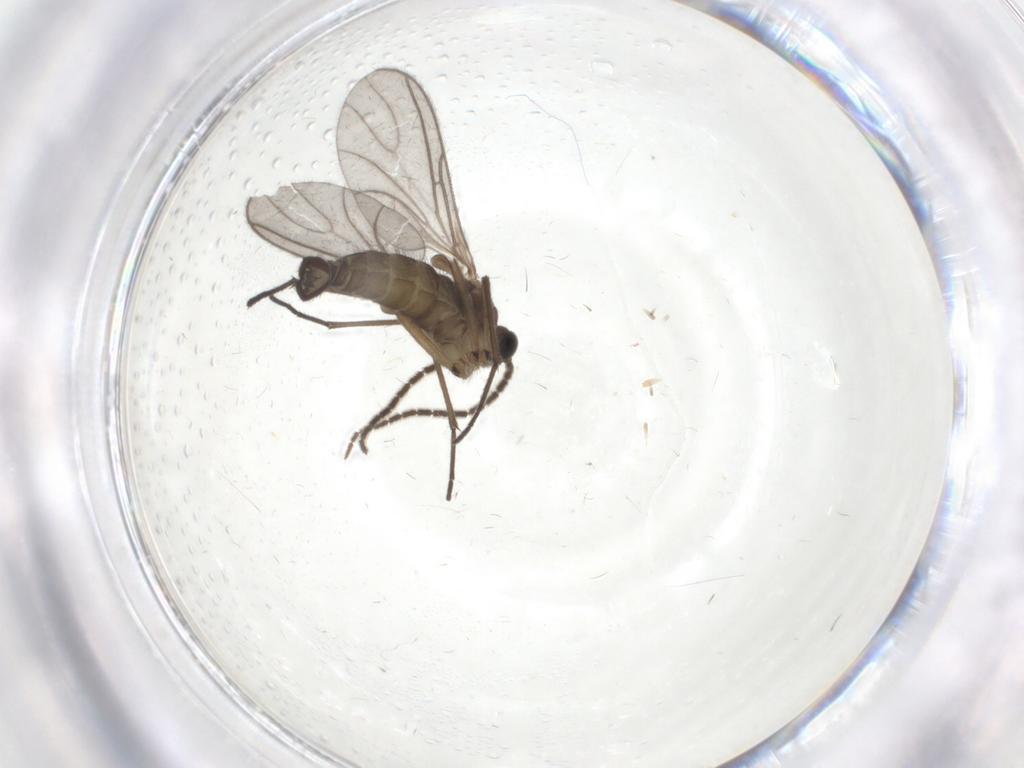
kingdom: Animalia
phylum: Arthropoda
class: Insecta
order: Diptera
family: Sciaridae
